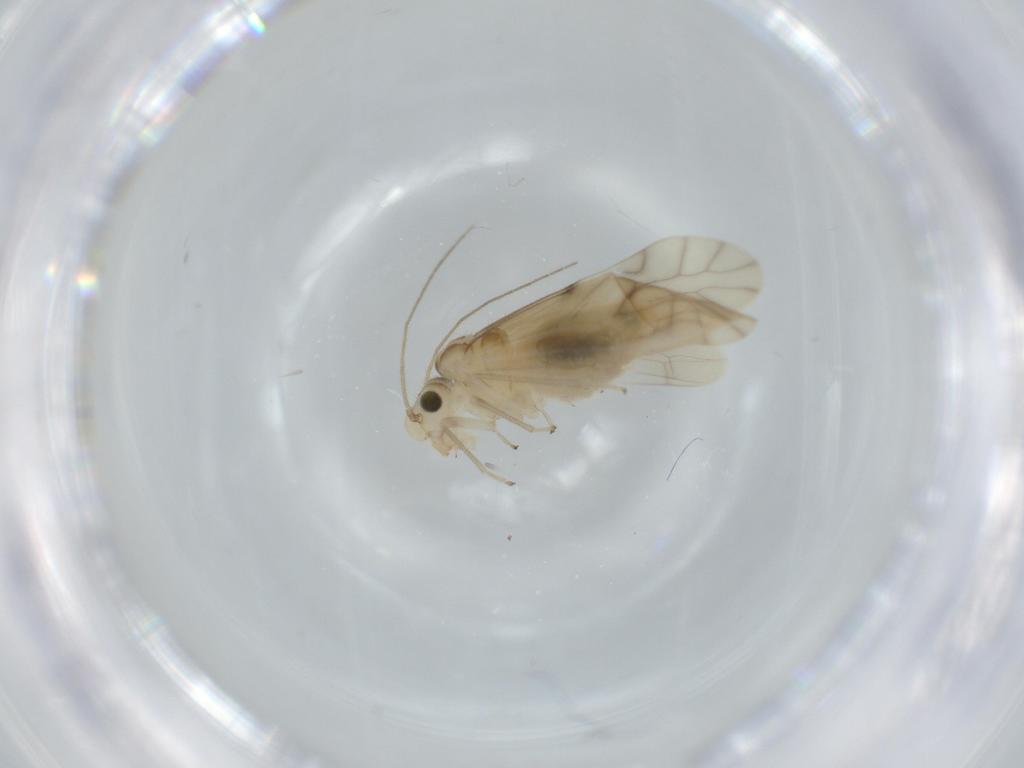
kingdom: Animalia
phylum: Arthropoda
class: Insecta
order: Psocodea
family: Caeciliusidae
